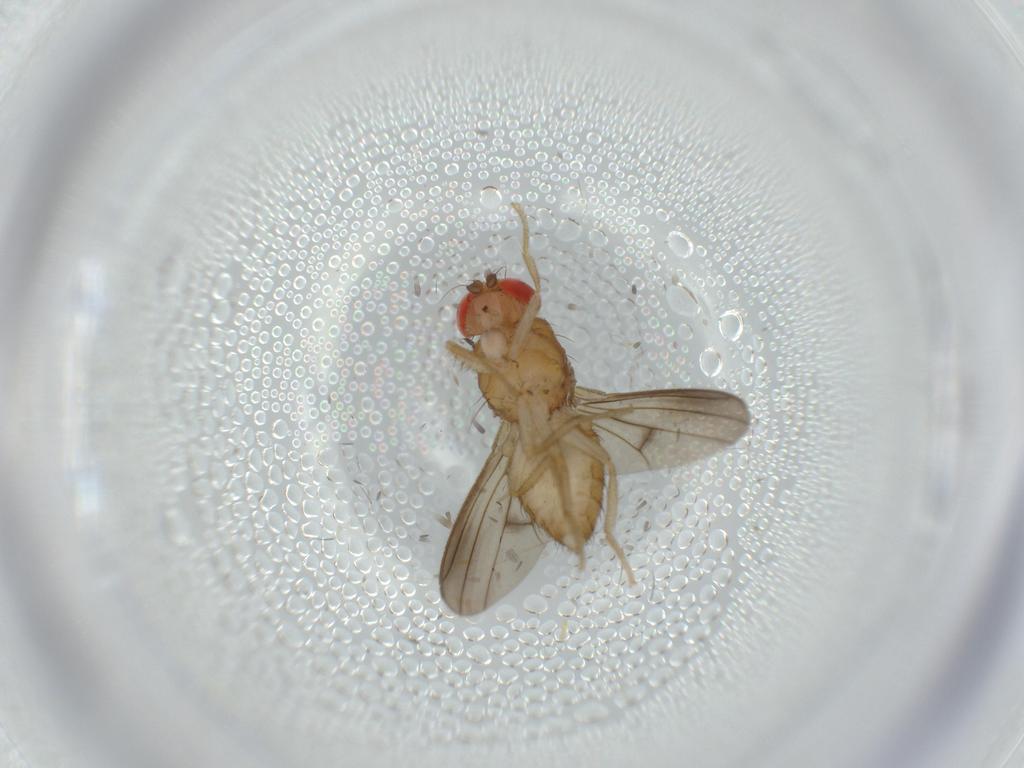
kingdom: Animalia
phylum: Arthropoda
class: Insecta
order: Diptera
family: Drosophilidae
